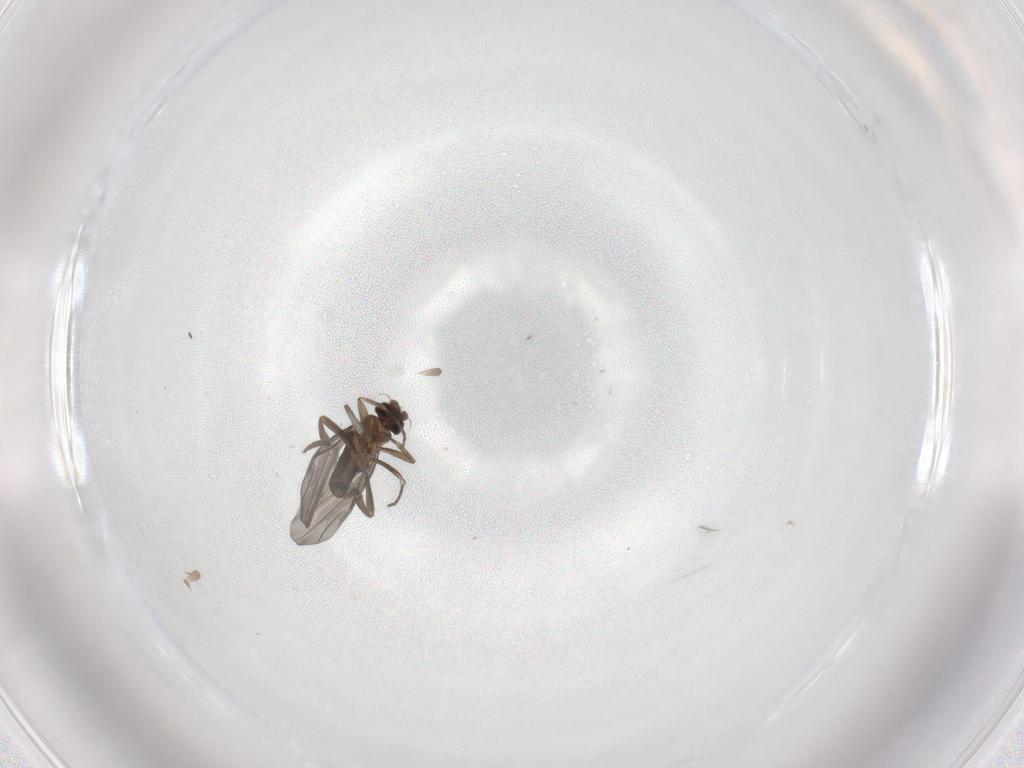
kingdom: Animalia
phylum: Arthropoda
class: Insecta
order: Diptera
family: Phoridae
